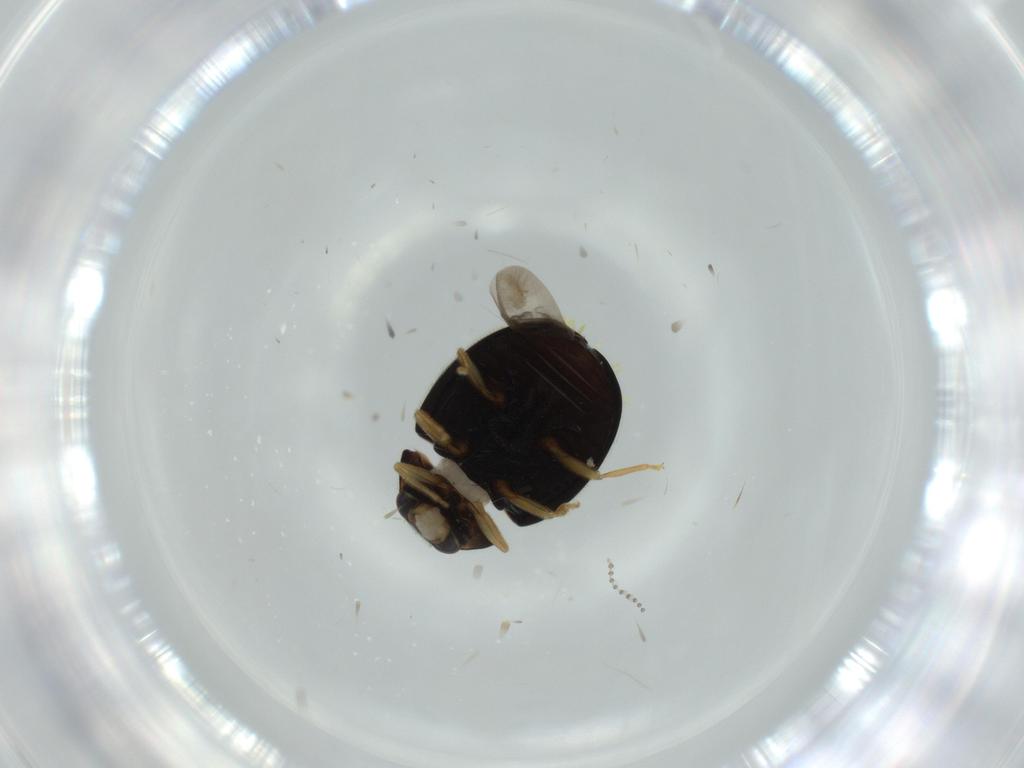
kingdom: Animalia
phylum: Arthropoda
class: Insecta
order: Coleoptera
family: Coccinellidae
